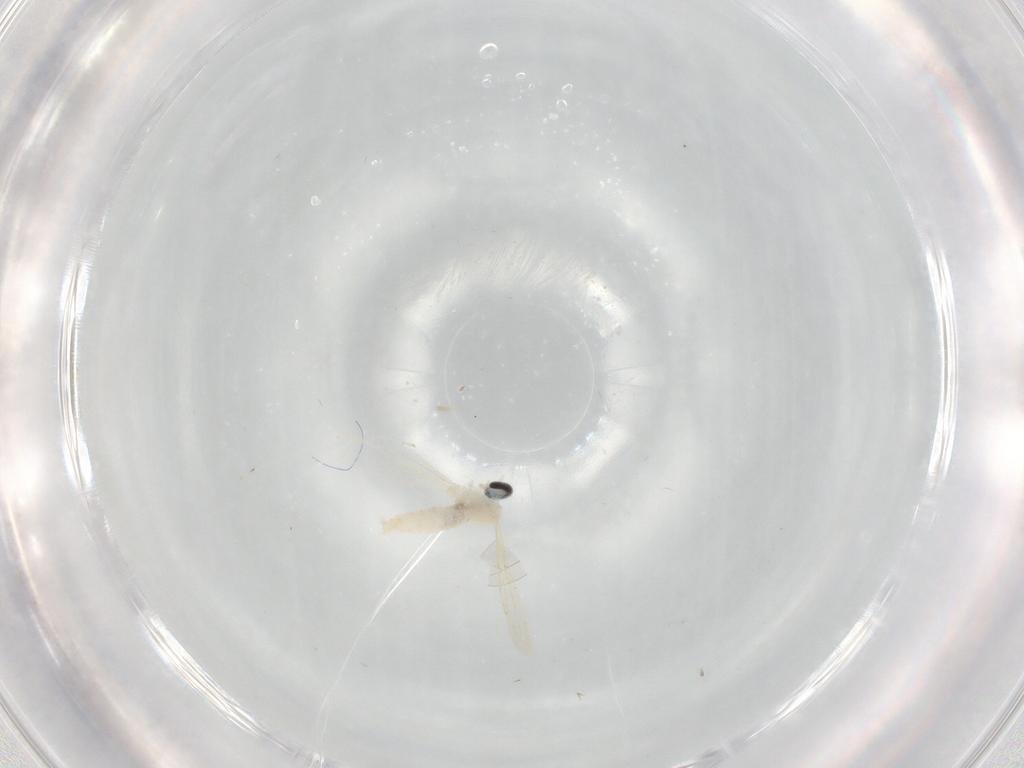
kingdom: Animalia
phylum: Arthropoda
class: Insecta
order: Diptera
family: Cecidomyiidae
